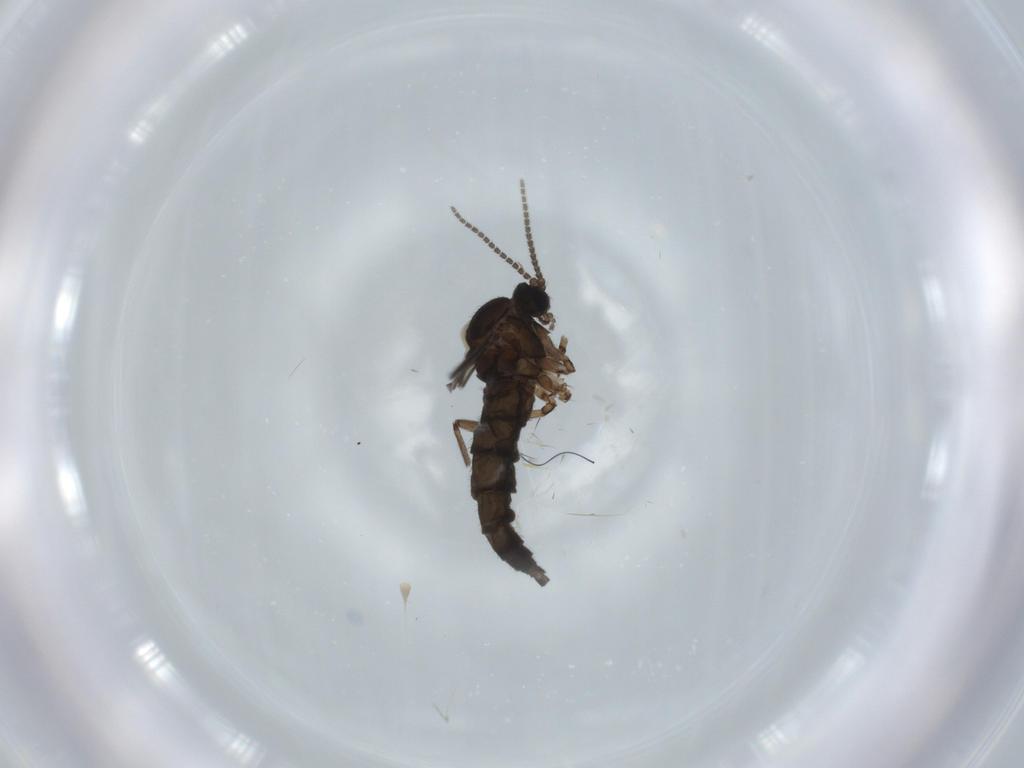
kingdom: Animalia
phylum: Arthropoda
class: Insecta
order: Diptera
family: Sciaridae
